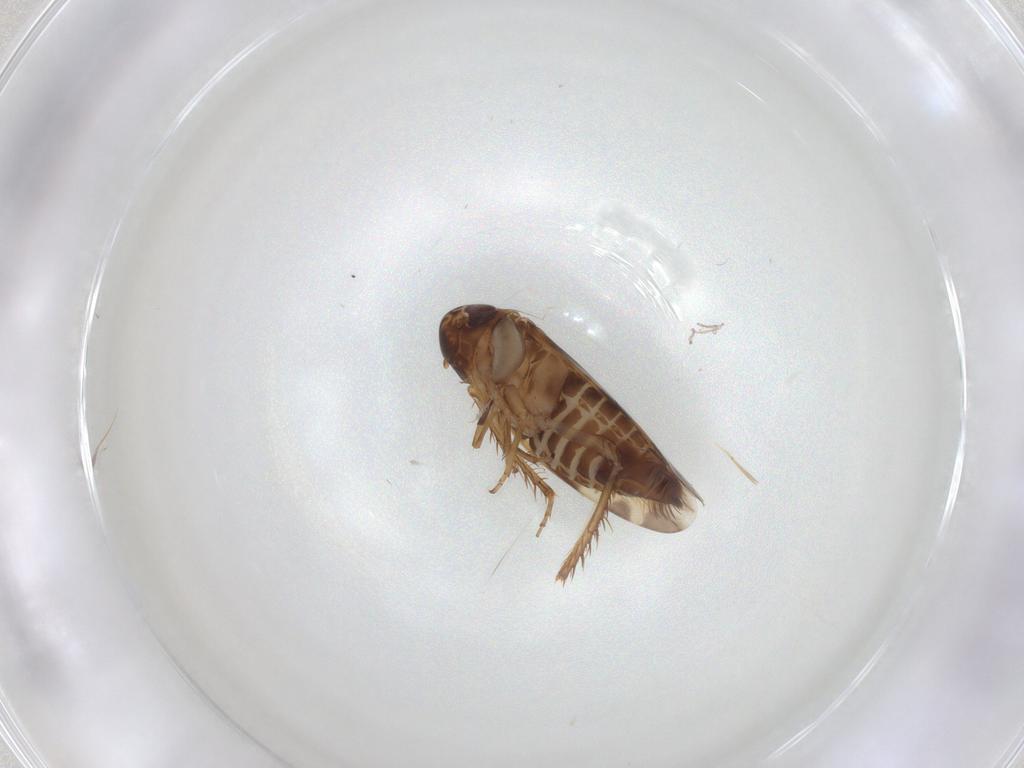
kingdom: Animalia
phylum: Arthropoda
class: Insecta
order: Hemiptera
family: Cicadellidae
